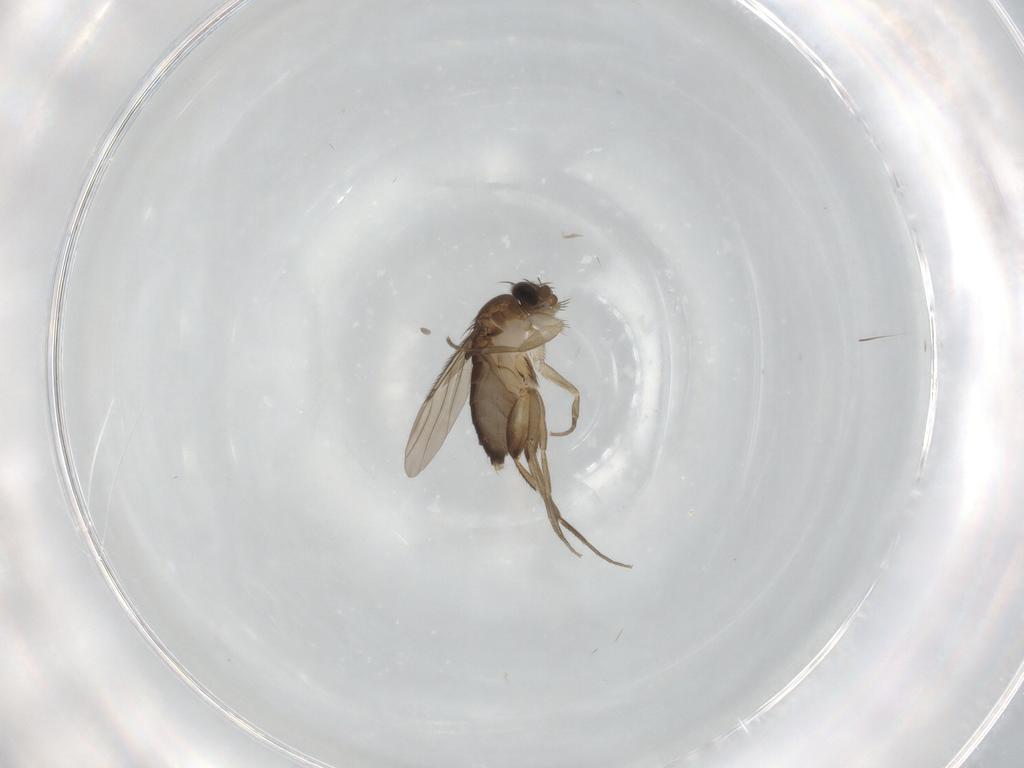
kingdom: Animalia
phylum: Arthropoda
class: Insecta
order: Diptera
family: Phoridae
